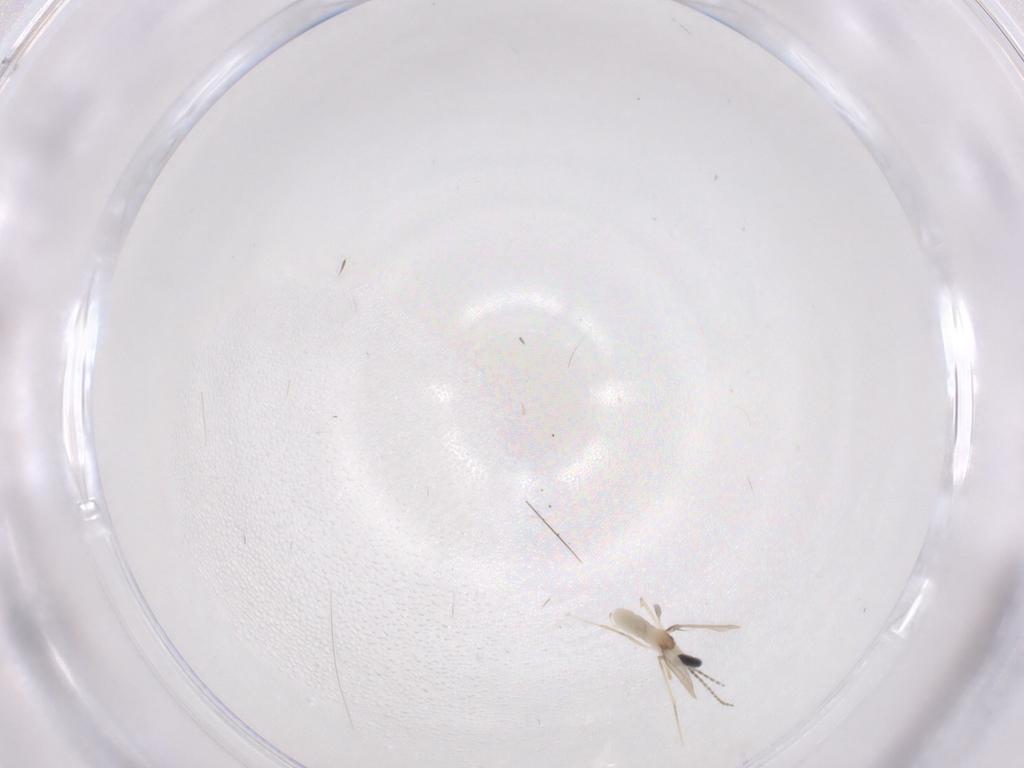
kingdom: Animalia
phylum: Arthropoda
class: Insecta
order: Diptera
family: Cecidomyiidae
